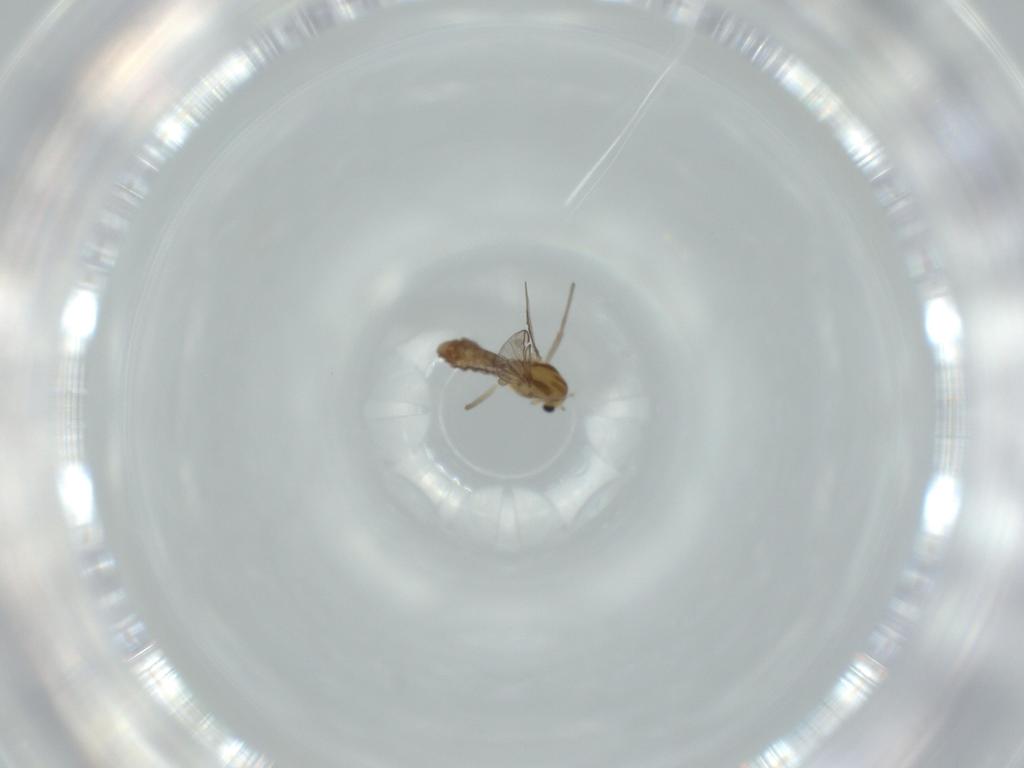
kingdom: Animalia
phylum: Arthropoda
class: Insecta
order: Diptera
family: Chironomidae
